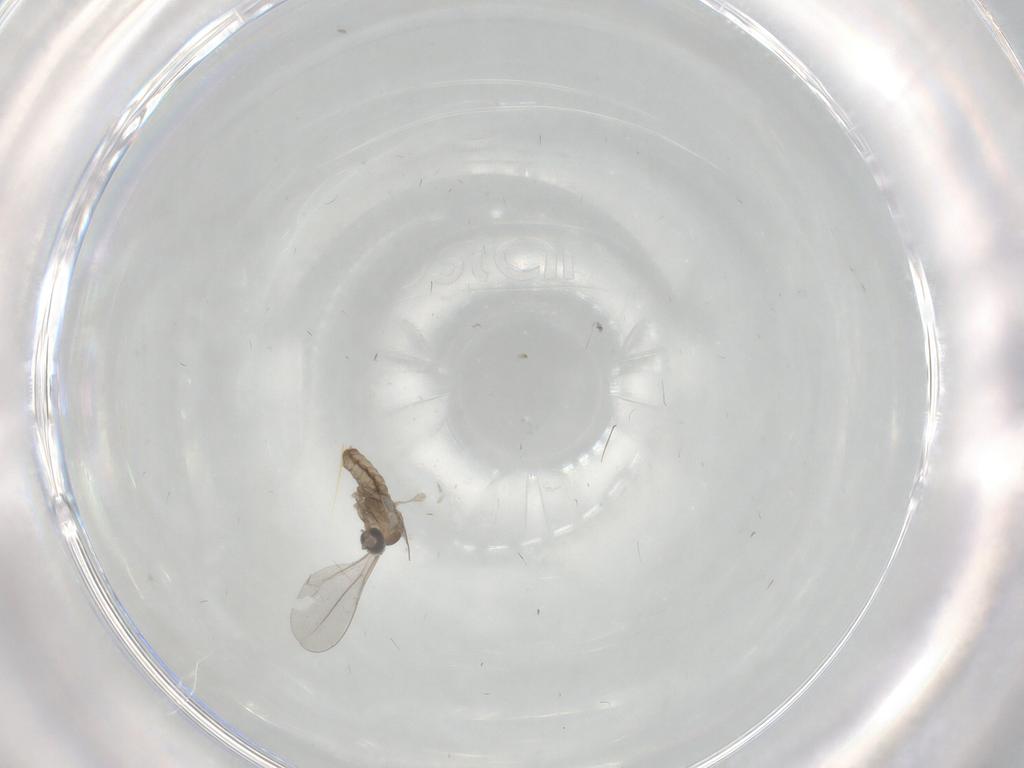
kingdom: Animalia
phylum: Arthropoda
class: Insecta
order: Diptera
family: Cecidomyiidae
